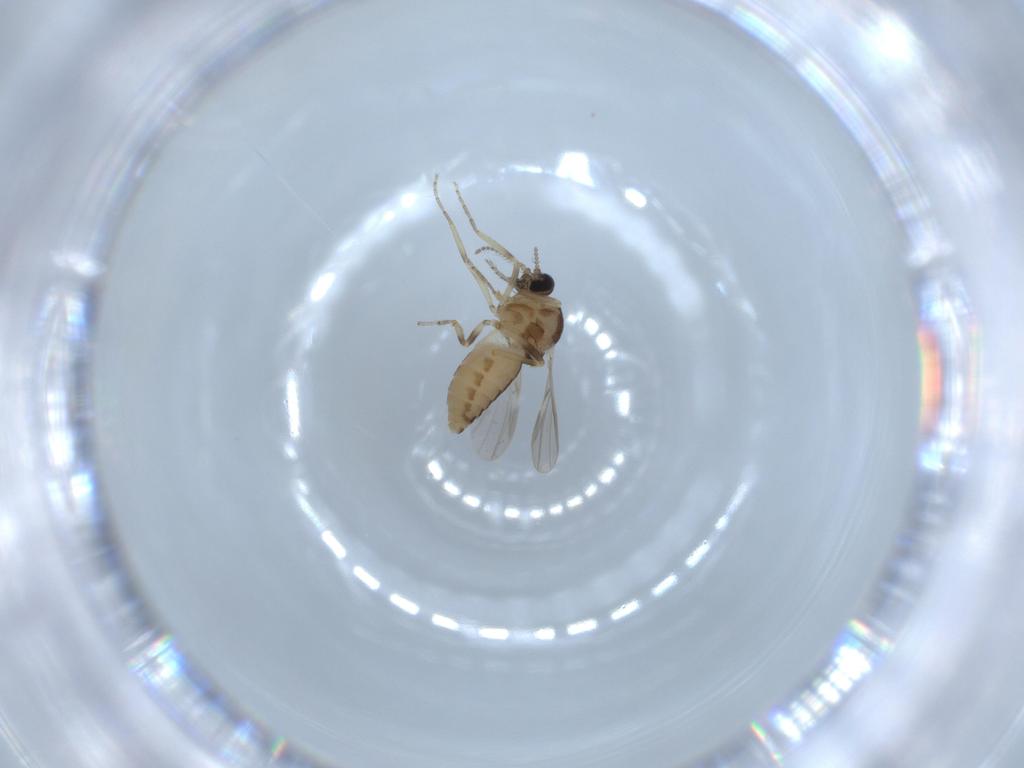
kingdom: Animalia
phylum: Arthropoda
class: Insecta
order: Diptera
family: Ceratopogonidae
